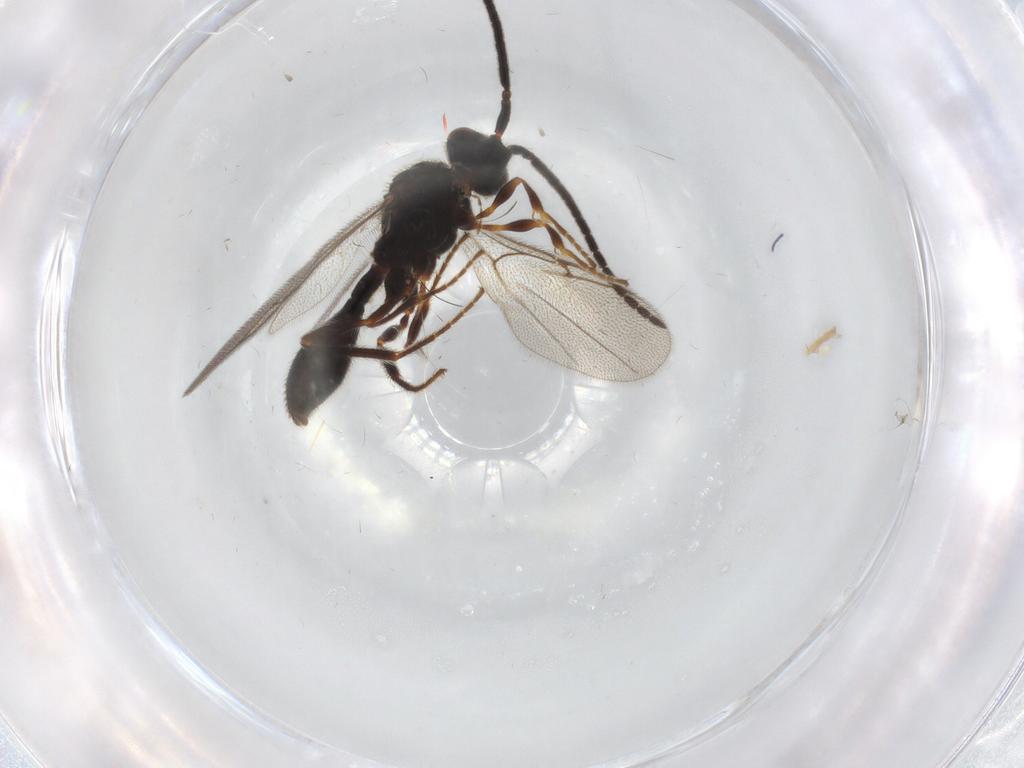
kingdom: Animalia
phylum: Arthropoda
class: Insecta
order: Hymenoptera
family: Diapriidae
